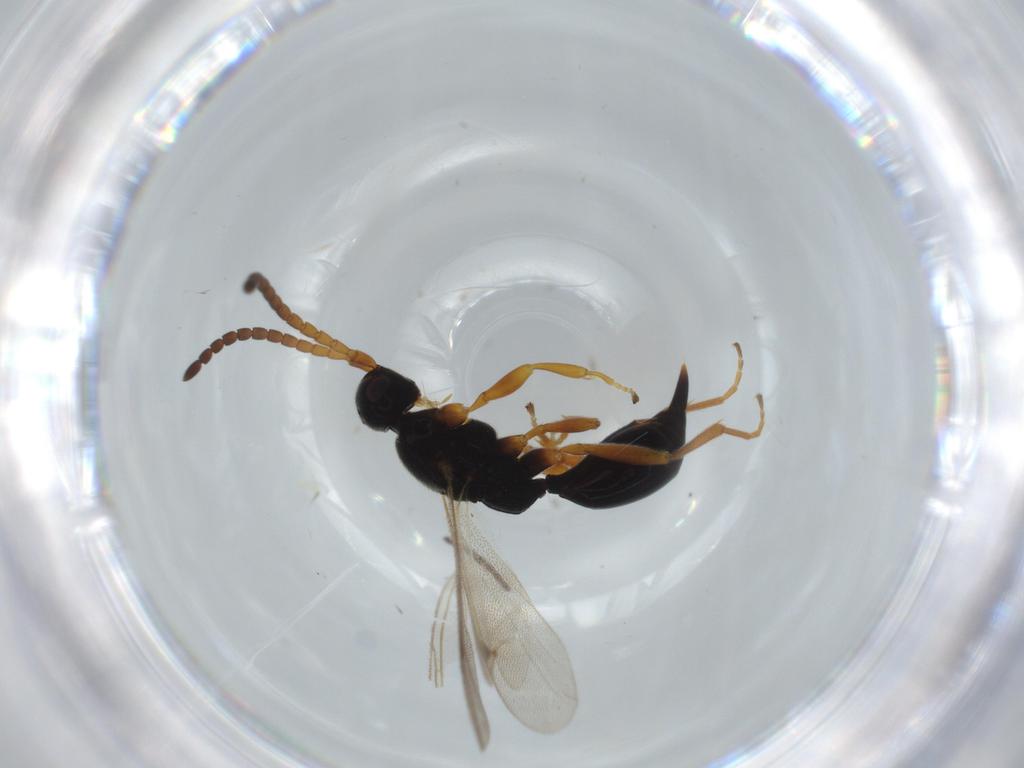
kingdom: Animalia
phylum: Arthropoda
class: Insecta
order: Hymenoptera
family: Proctotrupidae
